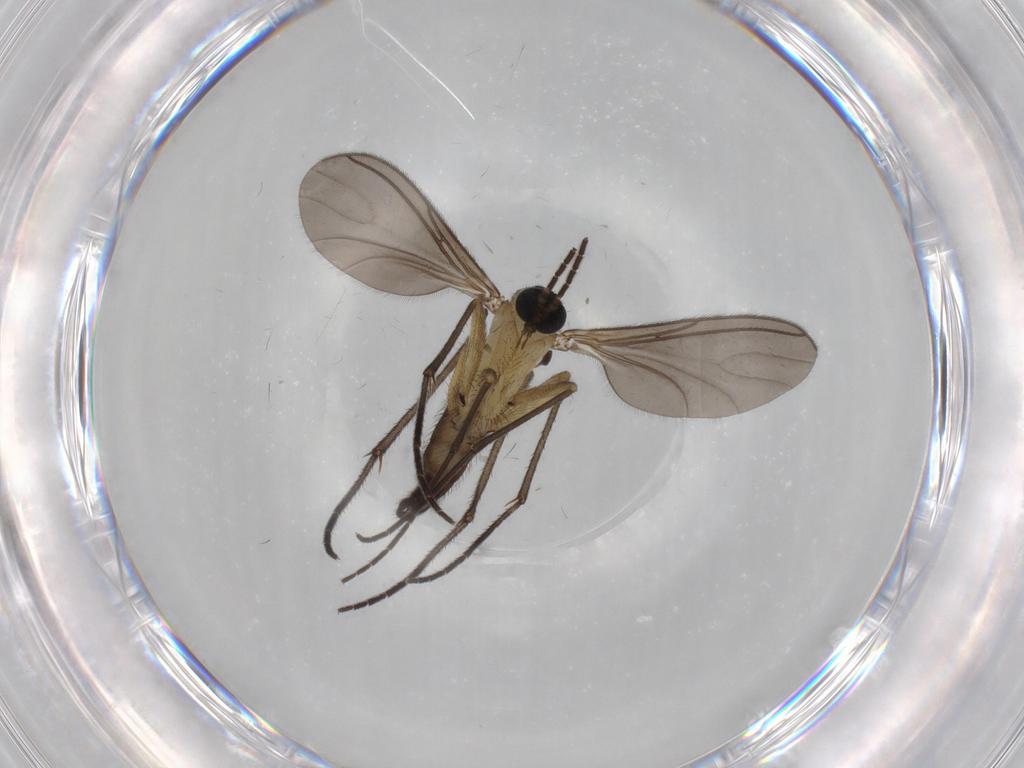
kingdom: Animalia
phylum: Arthropoda
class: Insecta
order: Diptera
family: Sciaridae
